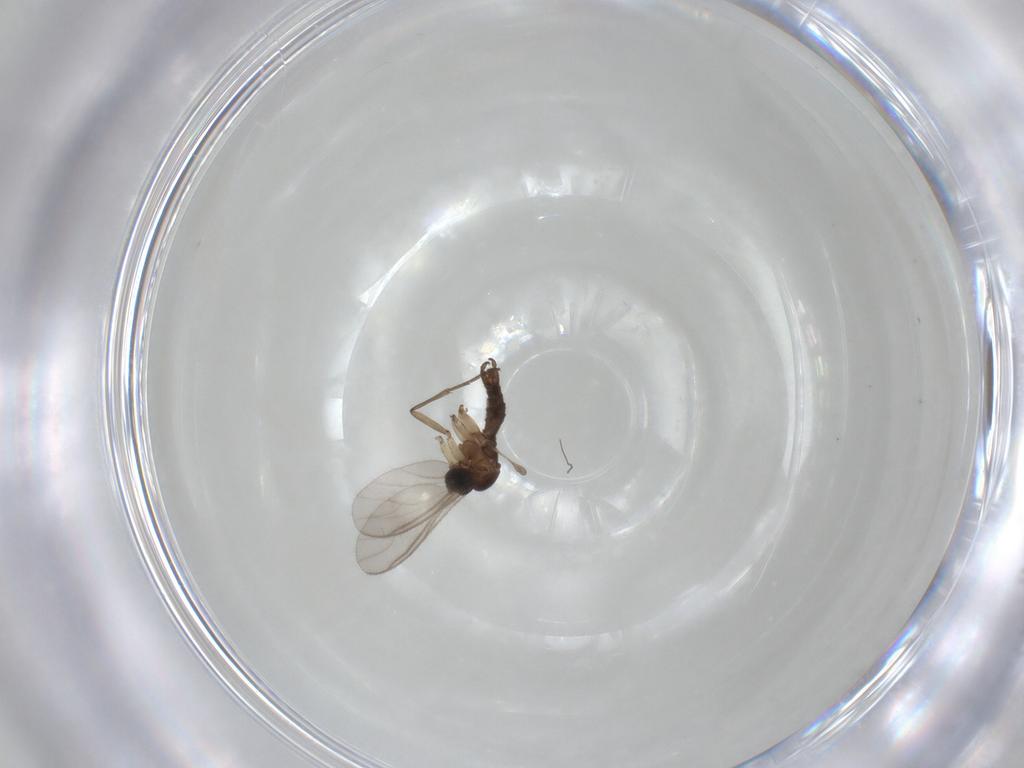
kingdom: Animalia
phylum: Arthropoda
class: Insecta
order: Diptera
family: Sciaridae
